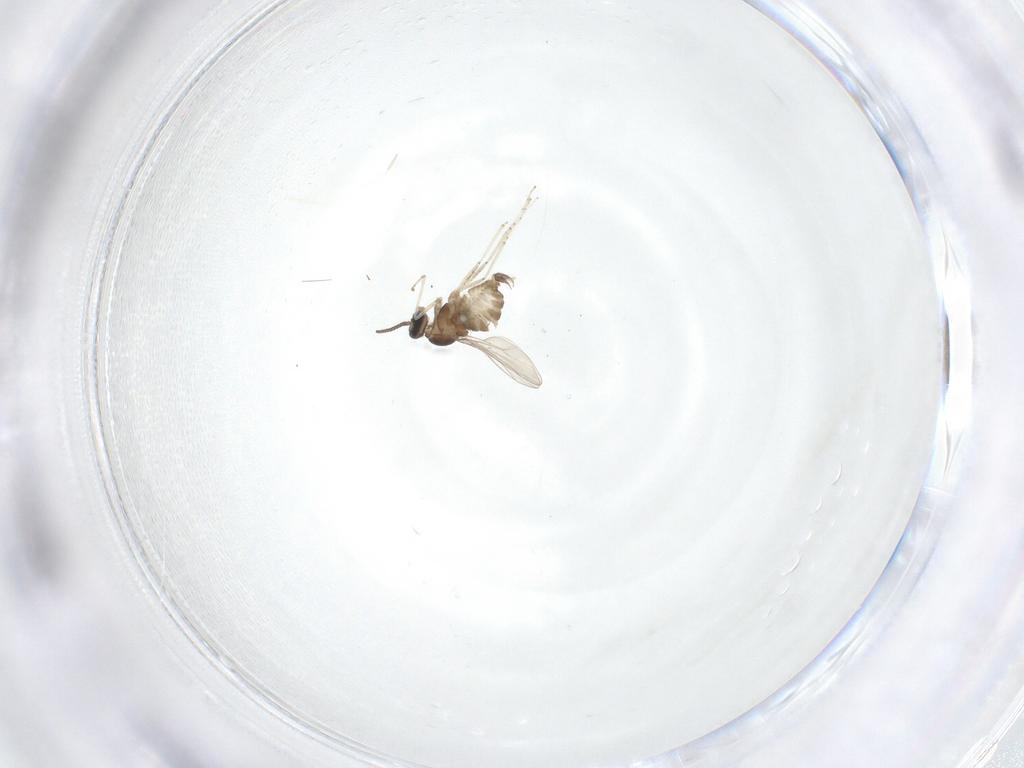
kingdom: Animalia
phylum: Arthropoda
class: Insecta
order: Diptera
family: Cecidomyiidae
